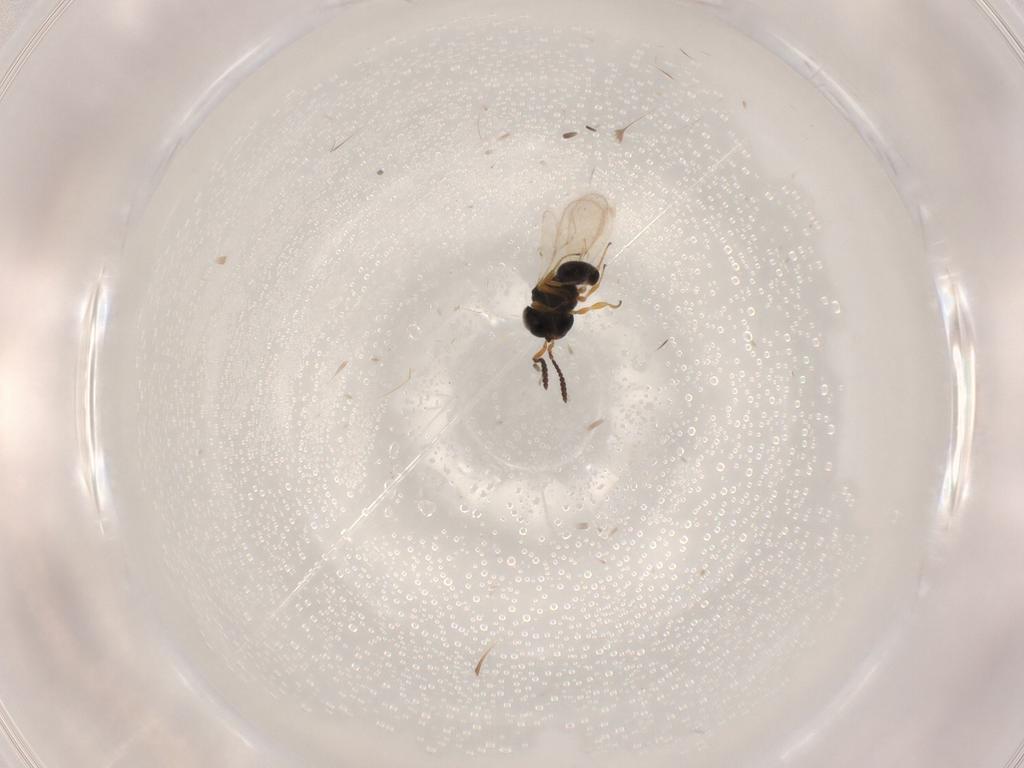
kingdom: Animalia
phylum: Arthropoda
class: Insecta
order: Hymenoptera
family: Scelionidae
